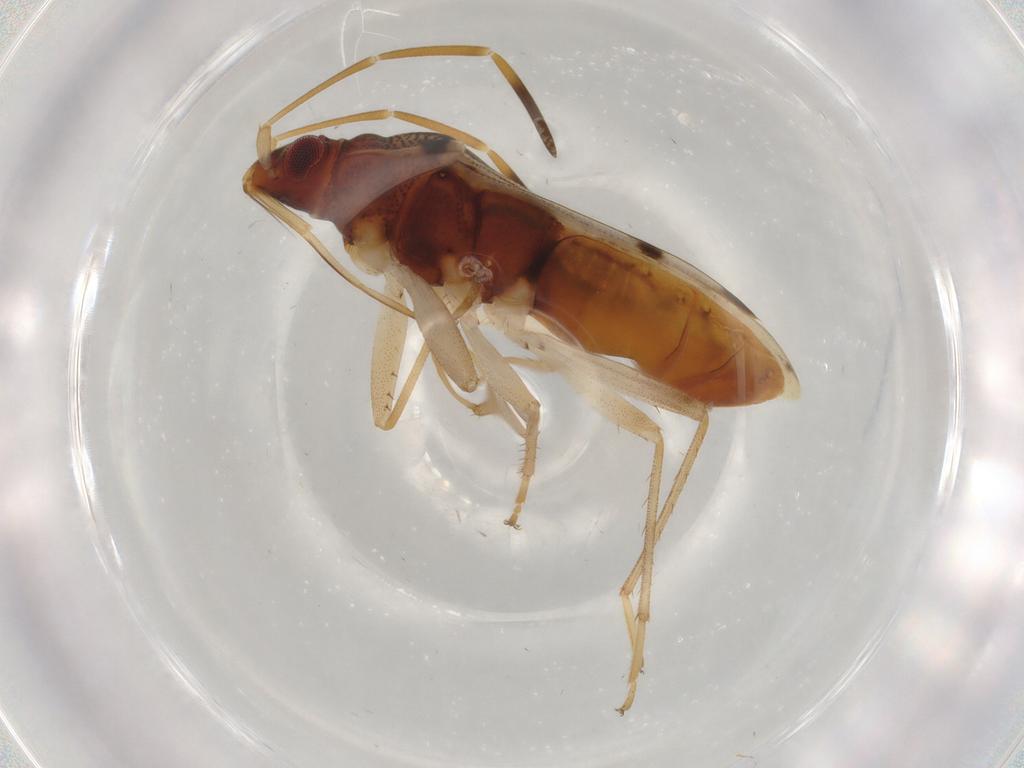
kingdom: Animalia
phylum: Arthropoda
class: Insecta
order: Hemiptera
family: Rhyparochromidae
